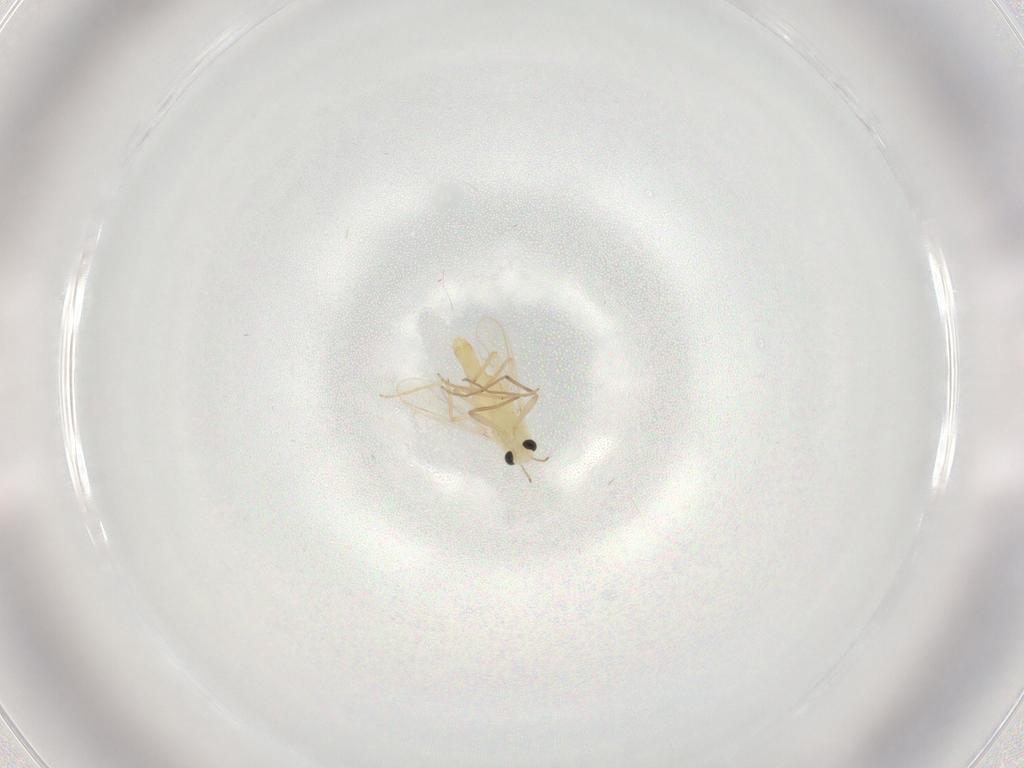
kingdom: Animalia
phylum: Arthropoda
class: Insecta
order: Diptera
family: Chironomidae
